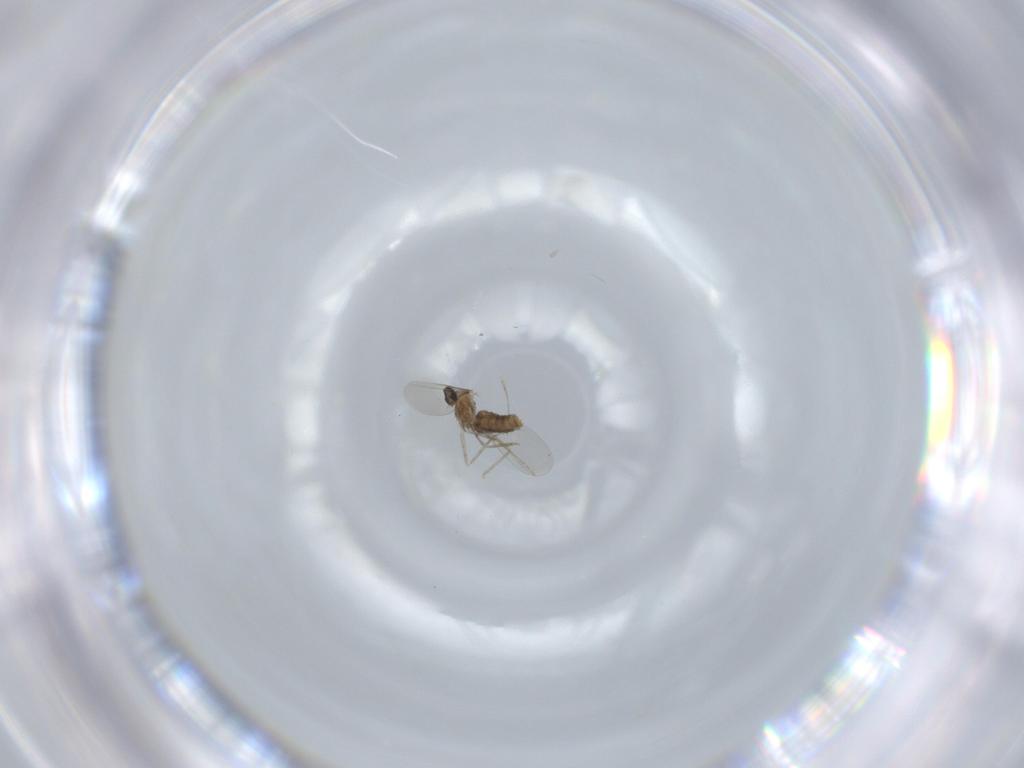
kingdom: Animalia
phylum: Arthropoda
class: Insecta
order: Diptera
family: Cecidomyiidae
